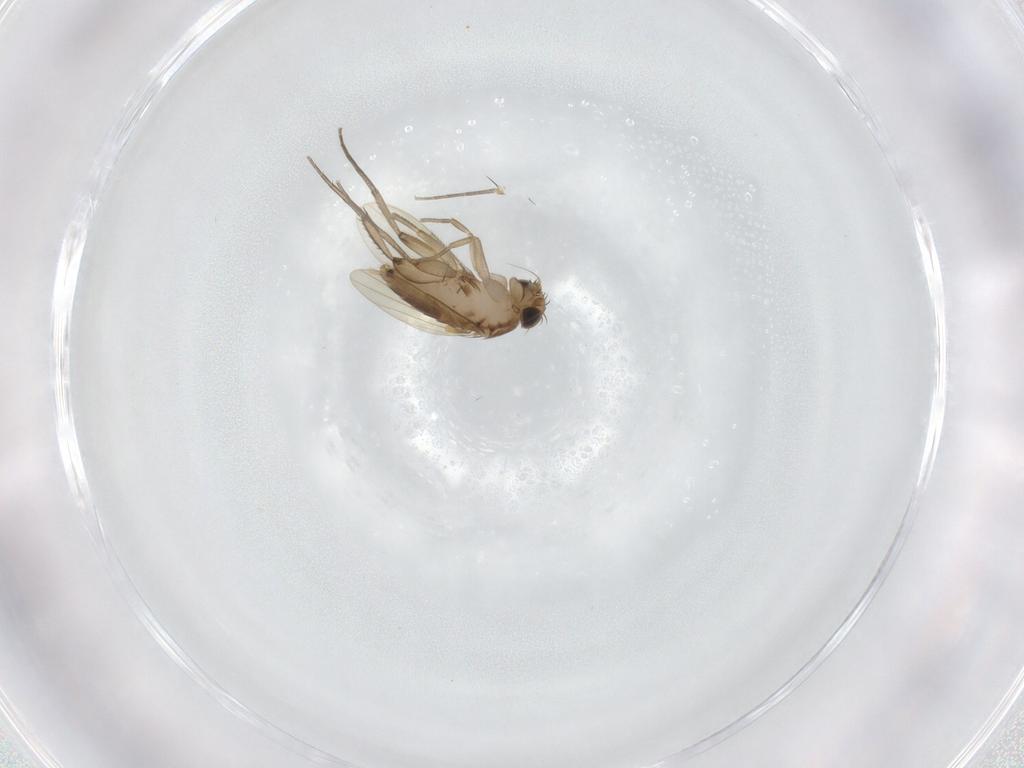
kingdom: Animalia
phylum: Arthropoda
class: Insecta
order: Diptera
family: Phoridae
